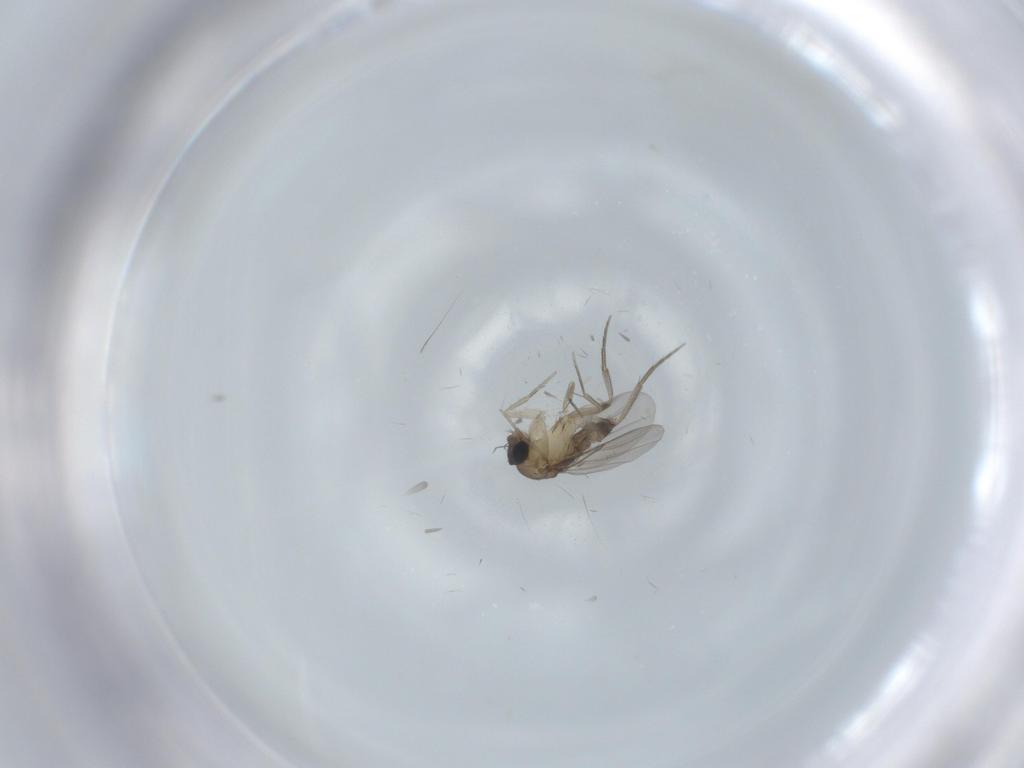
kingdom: Animalia
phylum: Arthropoda
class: Insecta
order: Diptera
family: Phoridae
